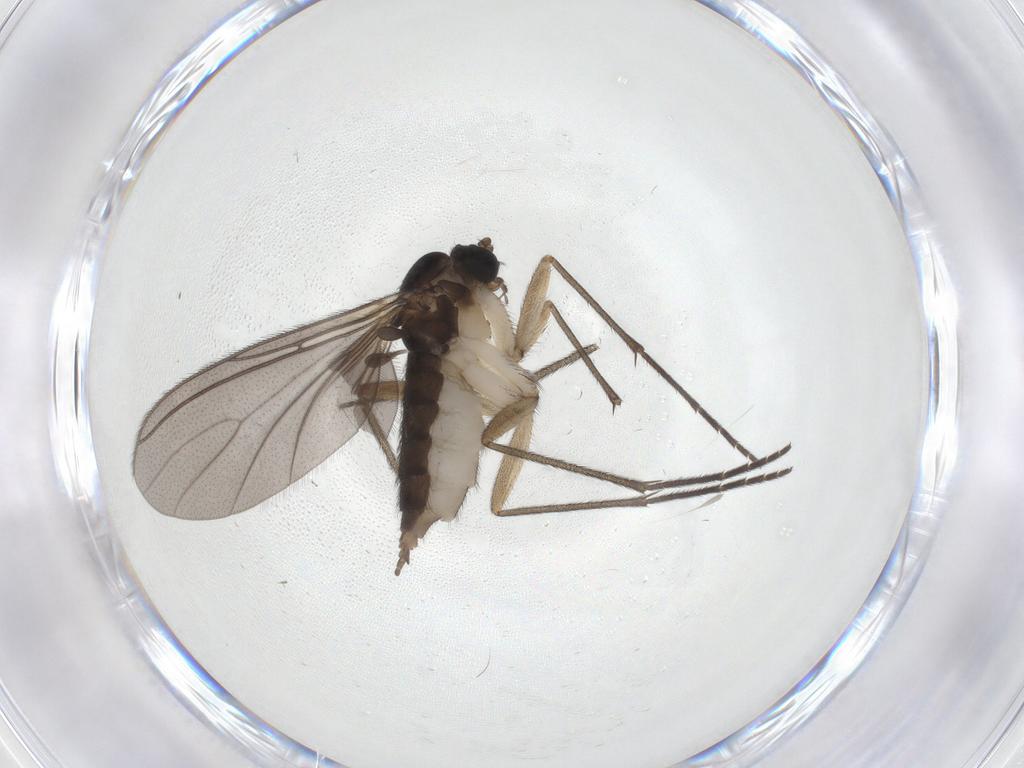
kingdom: Animalia
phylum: Arthropoda
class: Insecta
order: Diptera
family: Sciaridae
